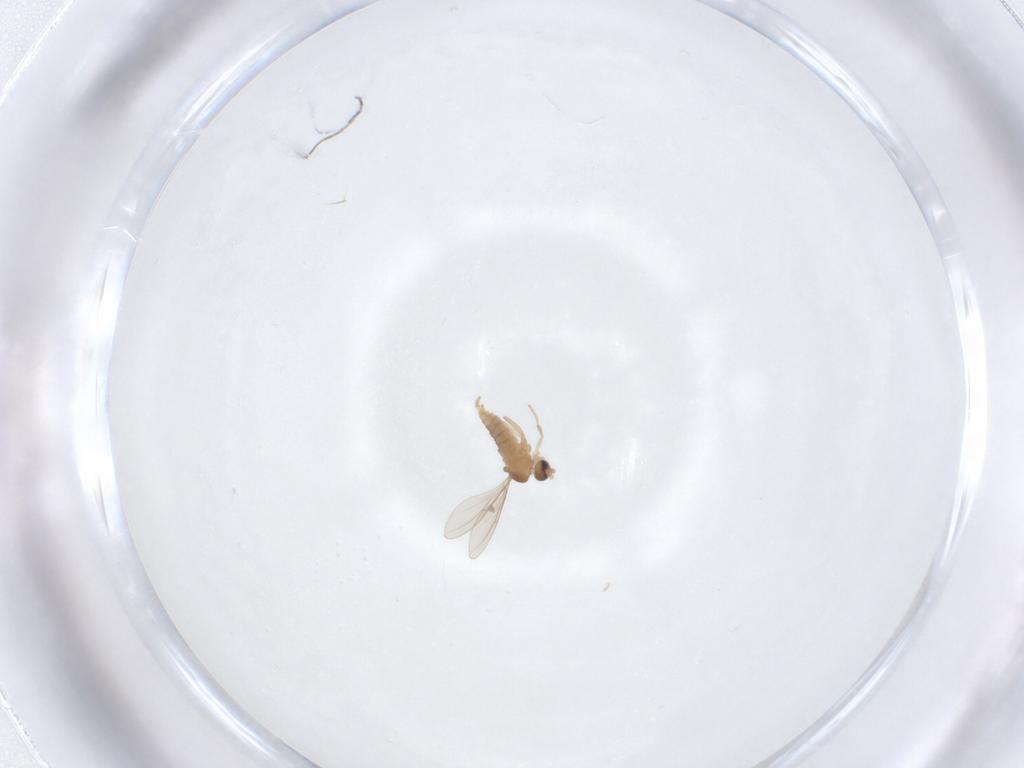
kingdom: Animalia
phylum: Arthropoda
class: Insecta
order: Diptera
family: Cecidomyiidae
